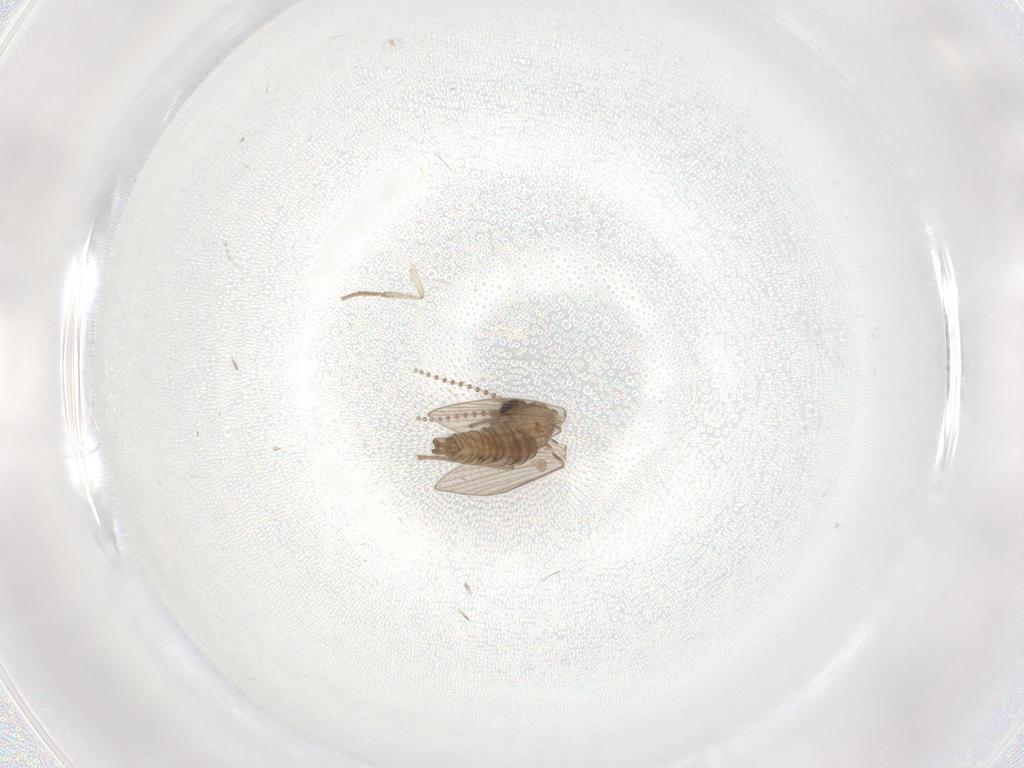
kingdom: Animalia
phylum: Arthropoda
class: Insecta
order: Diptera
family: Psychodidae
